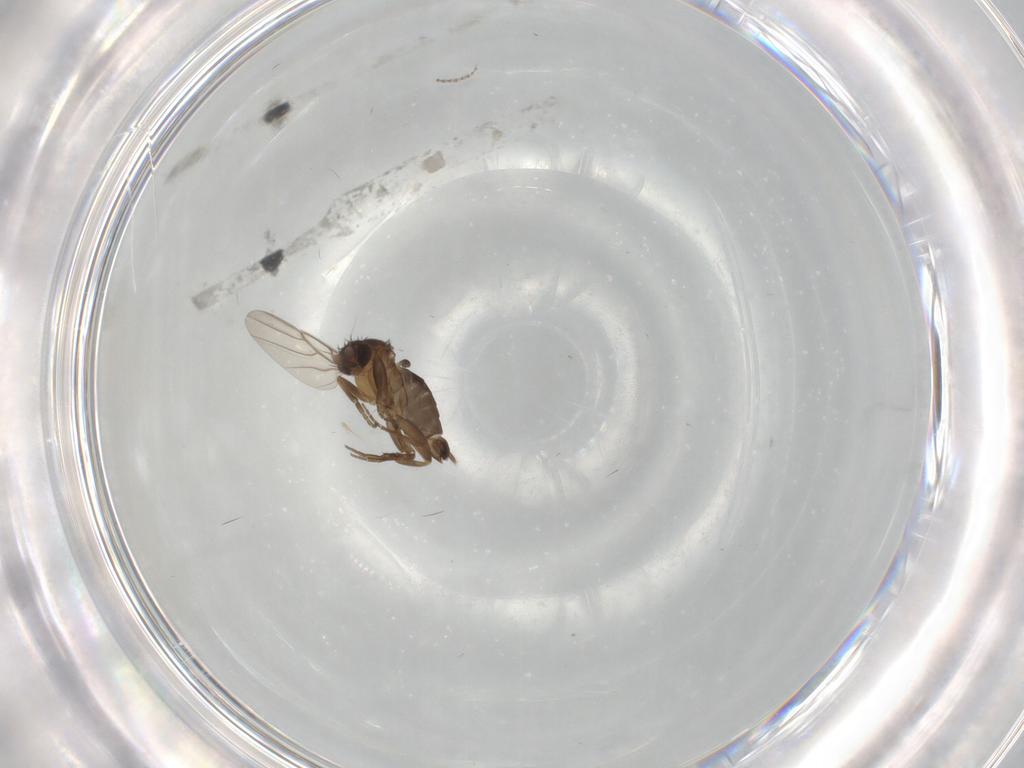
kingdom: Animalia
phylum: Arthropoda
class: Insecta
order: Diptera
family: Phoridae
